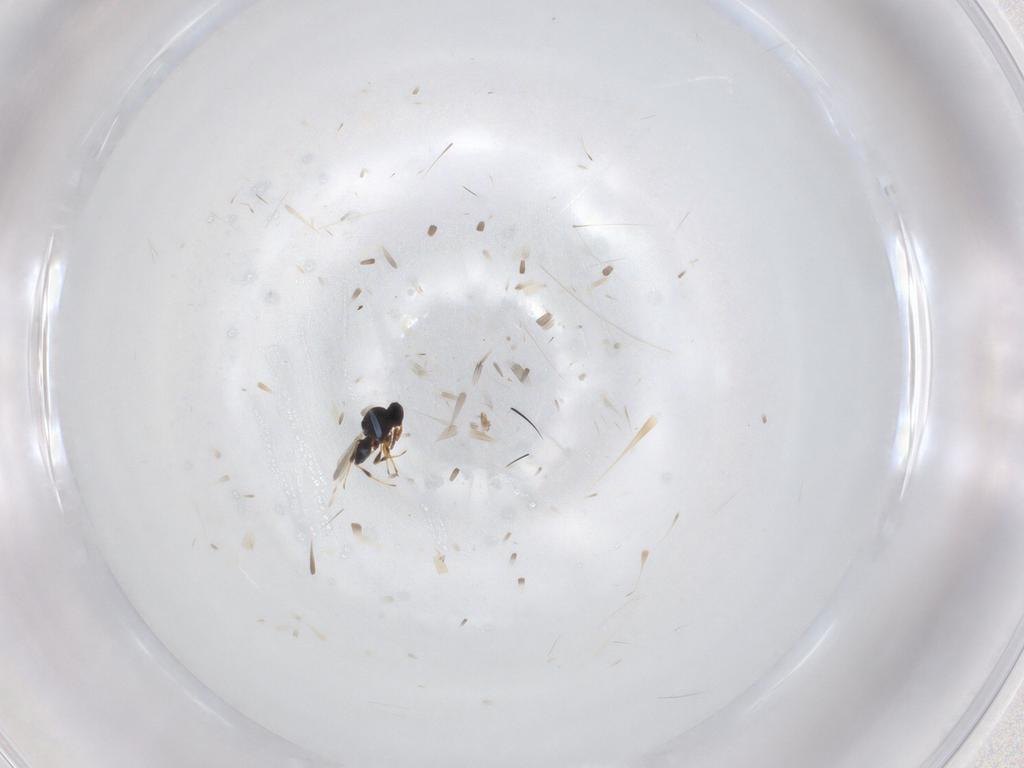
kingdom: Animalia
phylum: Arthropoda
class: Insecta
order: Hymenoptera
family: Platygastridae
